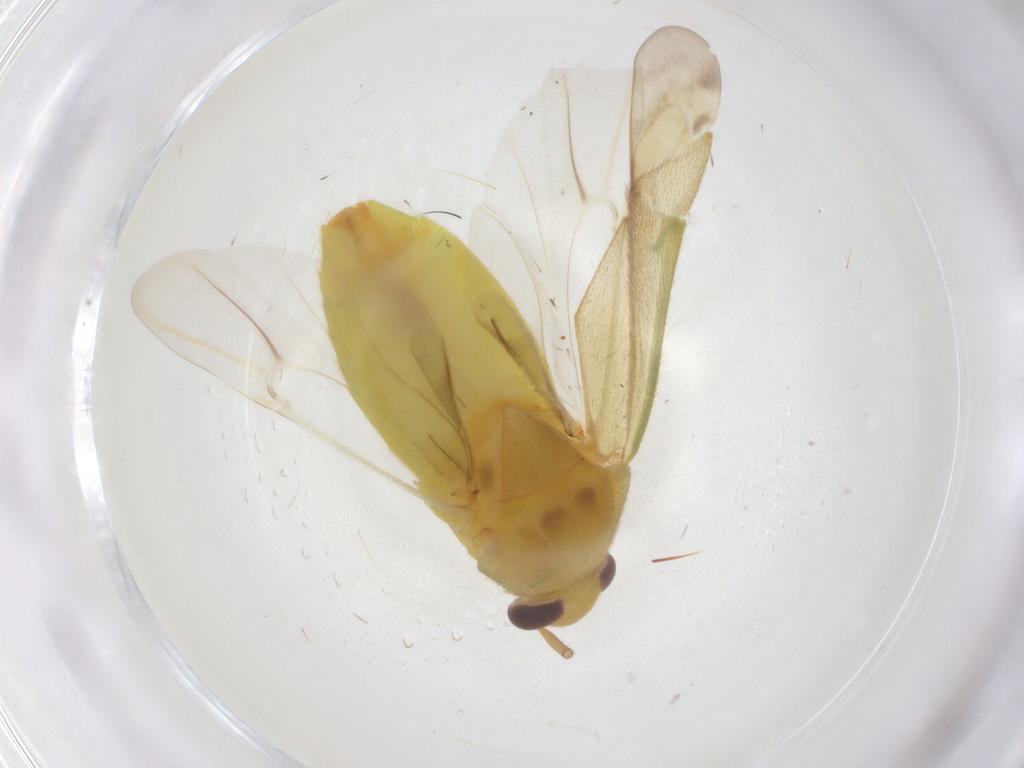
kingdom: Animalia
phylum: Arthropoda
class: Insecta
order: Hemiptera
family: Miridae
